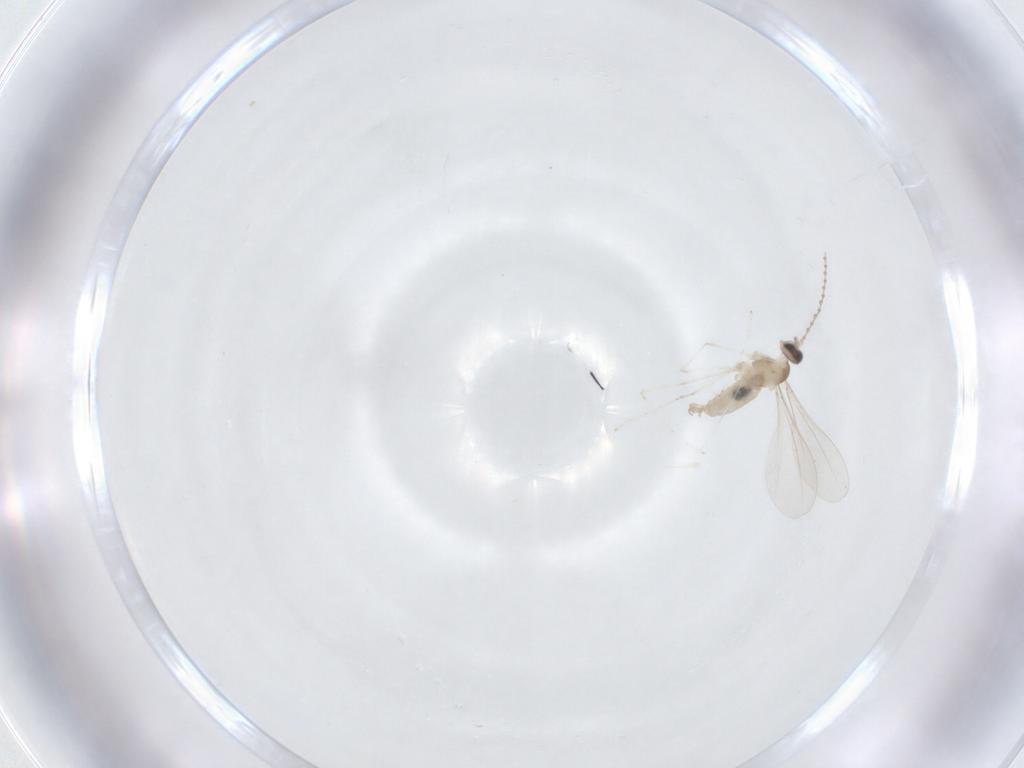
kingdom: Animalia
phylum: Arthropoda
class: Insecta
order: Diptera
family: Cecidomyiidae
